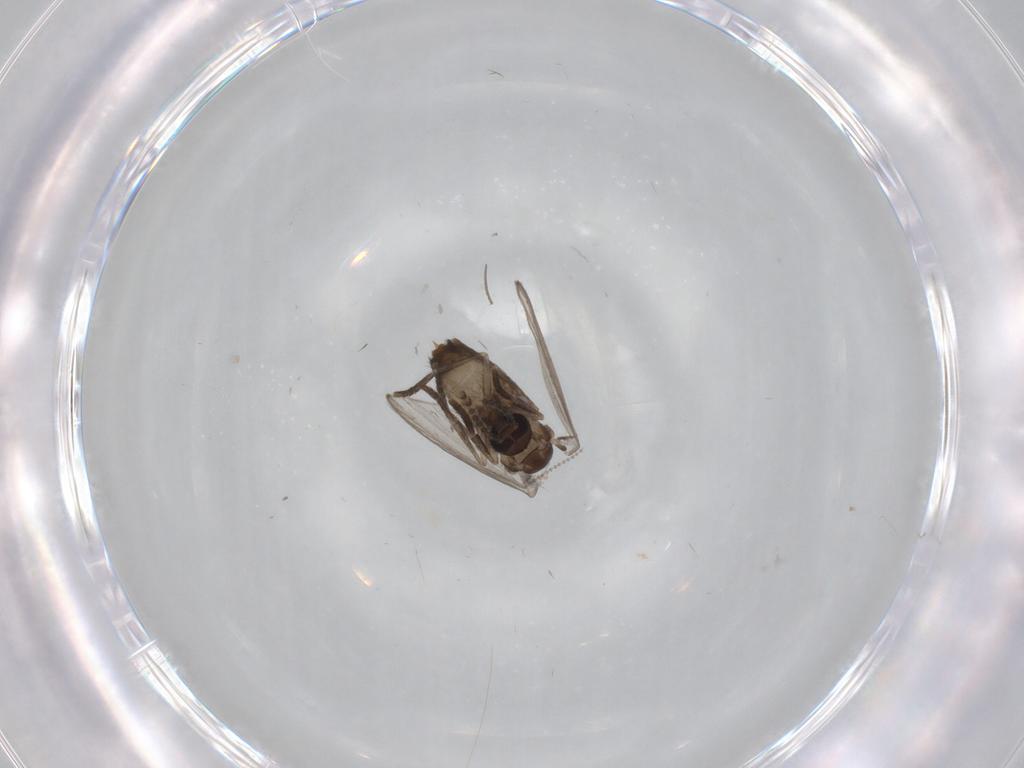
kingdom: Animalia
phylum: Arthropoda
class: Insecta
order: Diptera
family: Psychodidae
